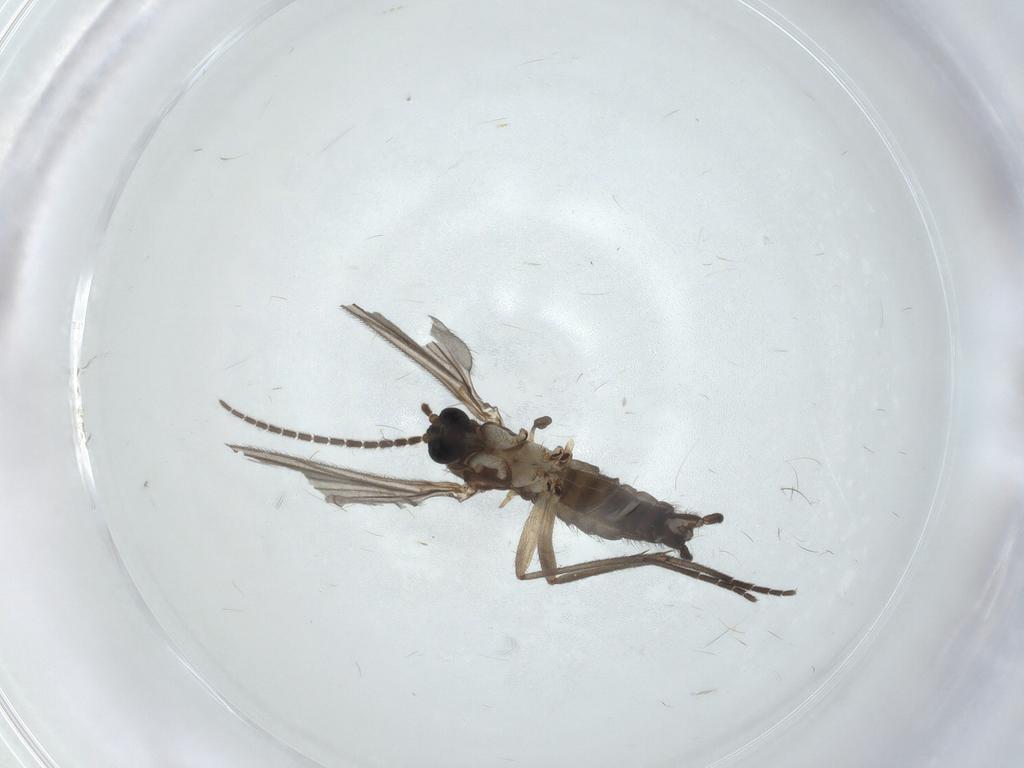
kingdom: Animalia
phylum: Arthropoda
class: Insecta
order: Diptera
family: Sciaridae
